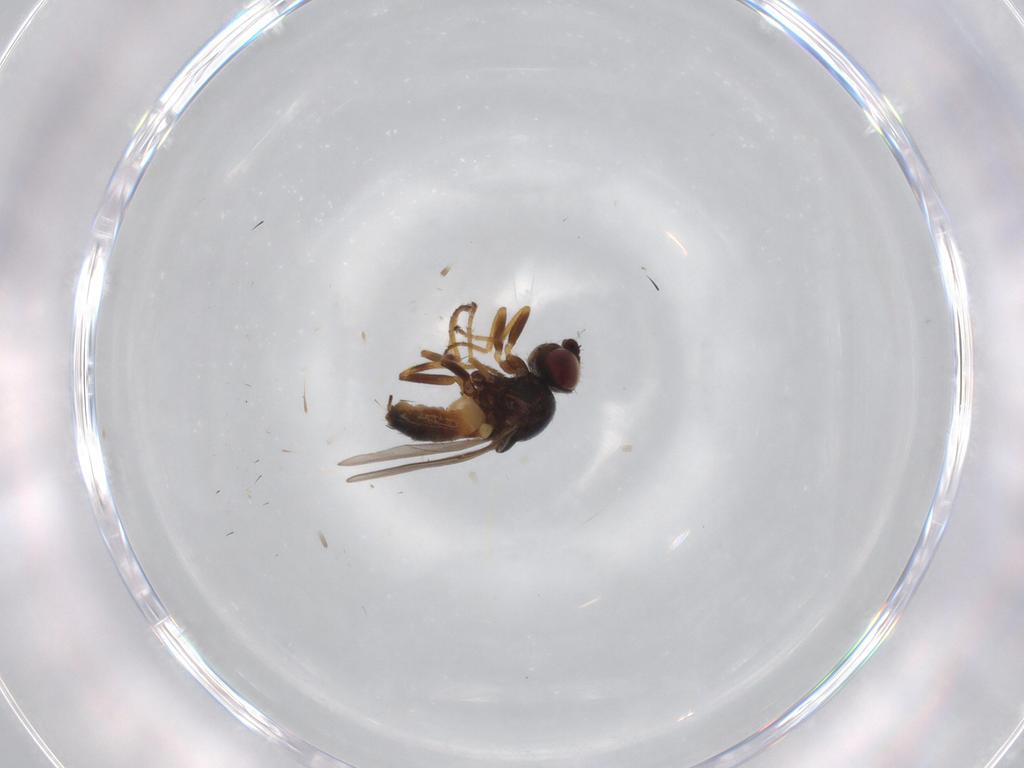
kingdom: Animalia
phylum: Arthropoda
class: Insecta
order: Diptera
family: Chloropidae
